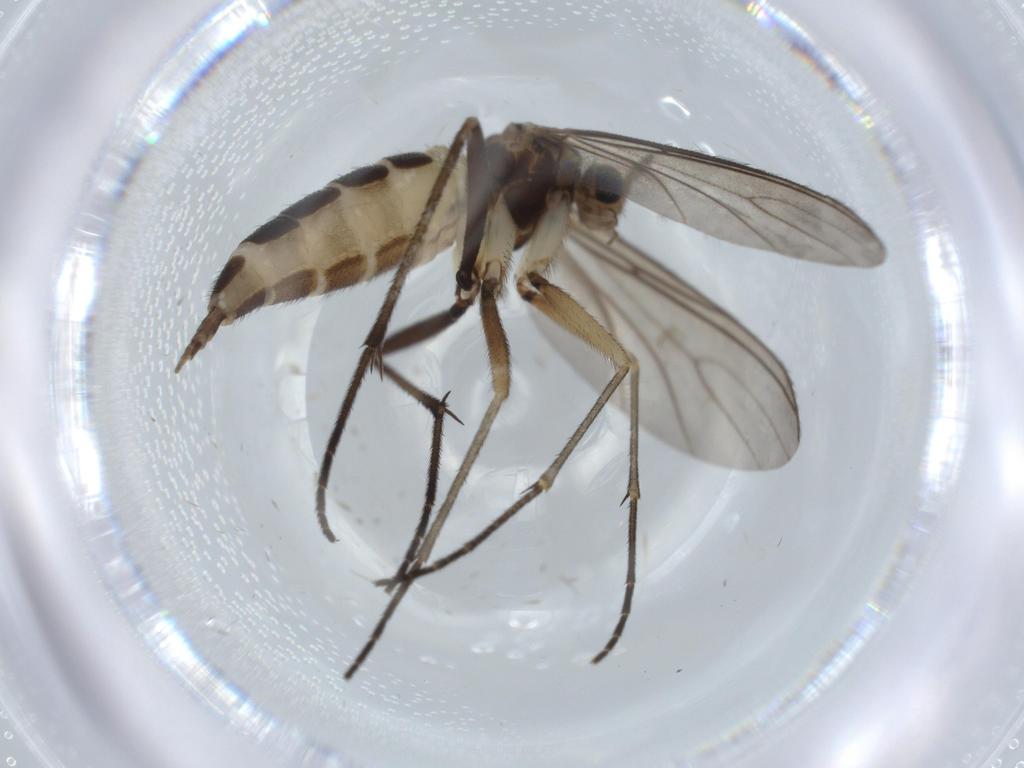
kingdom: Animalia
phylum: Arthropoda
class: Insecta
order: Diptera
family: Sciaridae
